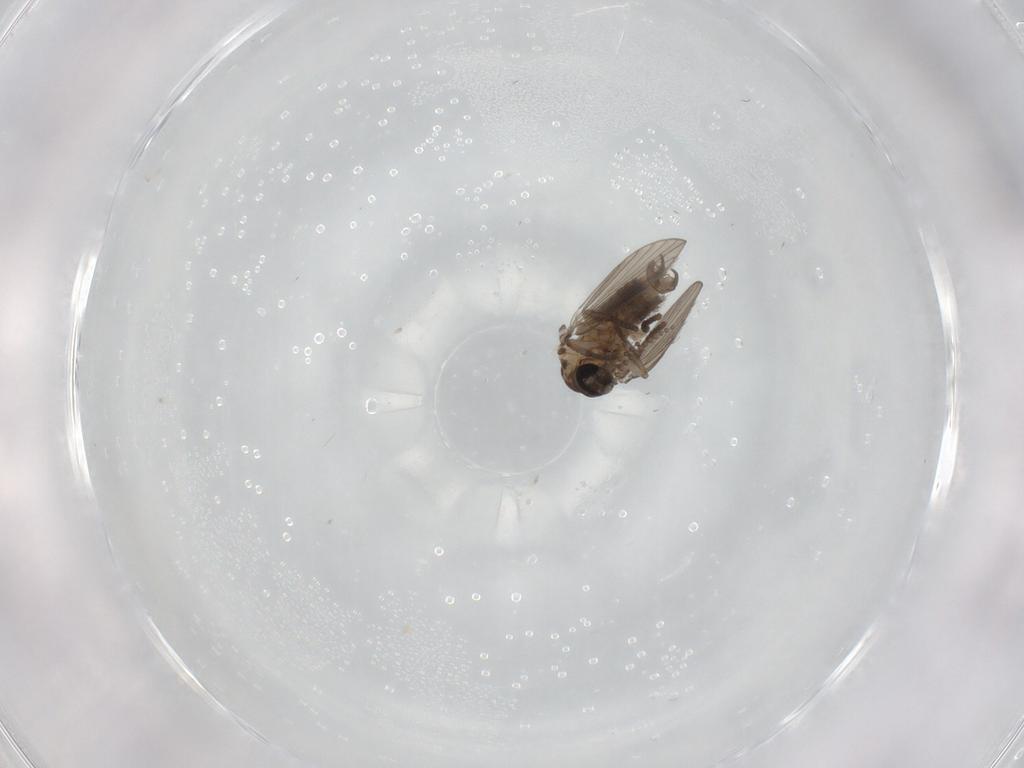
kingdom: Animalia
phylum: Arthropoda
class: Insecta
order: Diptera
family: Psychodidae
